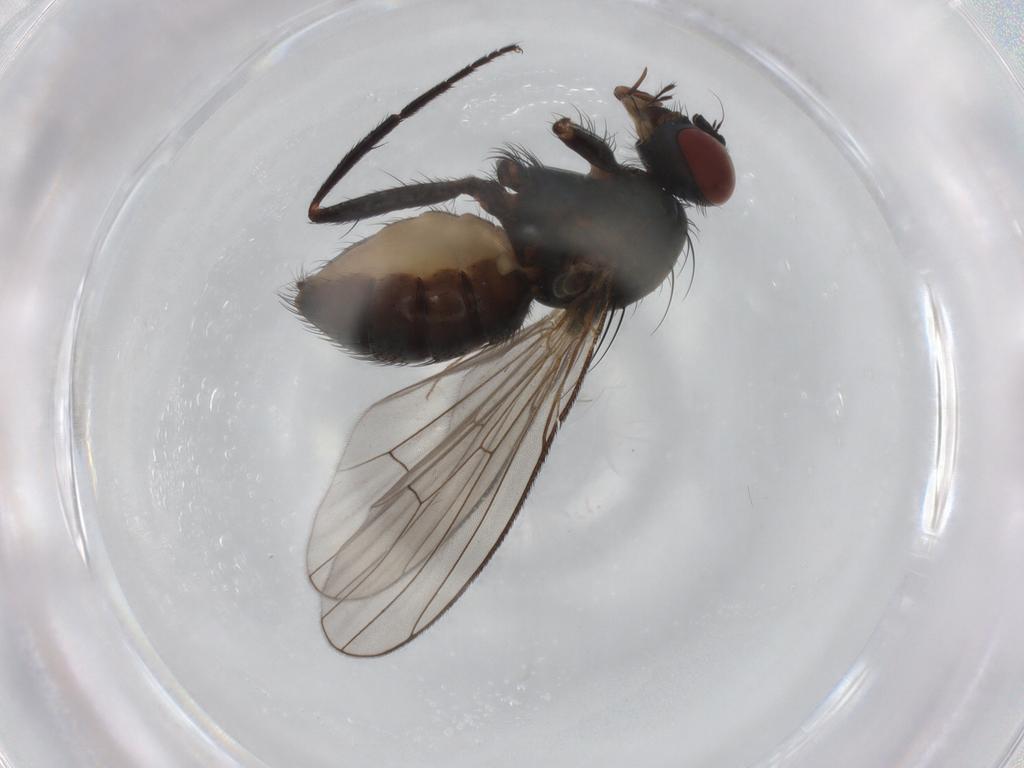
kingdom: Animalia
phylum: Arthropoda
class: Insecta
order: Diptera
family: Muscidae
